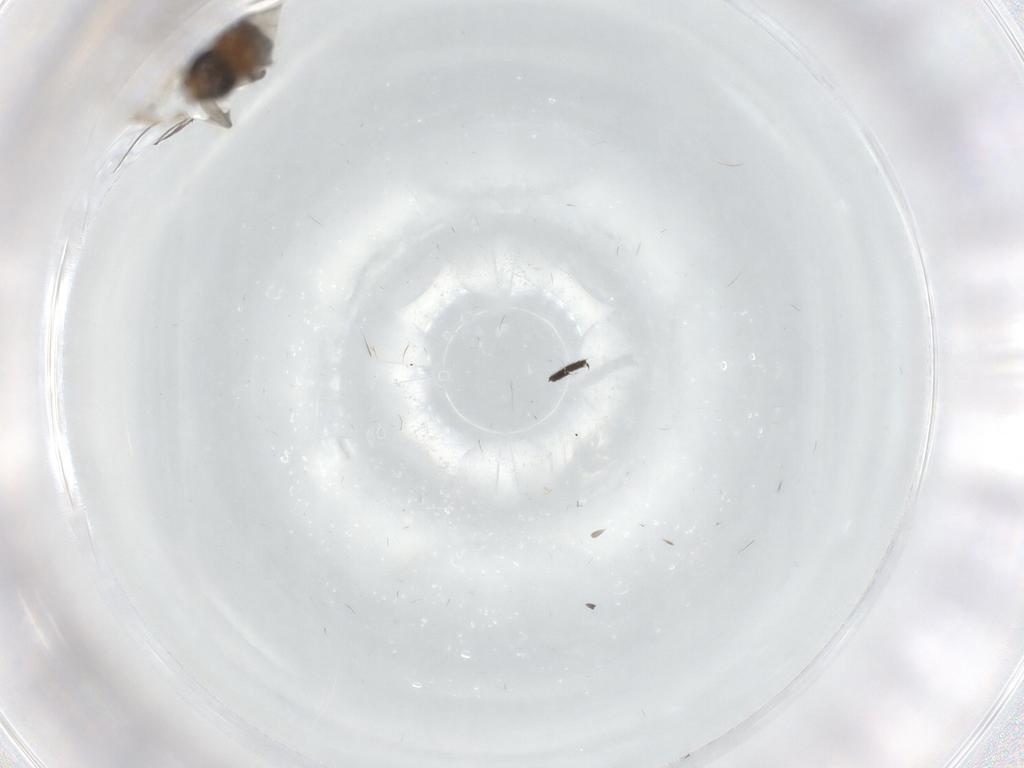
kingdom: Animalia
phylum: Arthropoda
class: Insecta
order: Diptera
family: Phoridae
